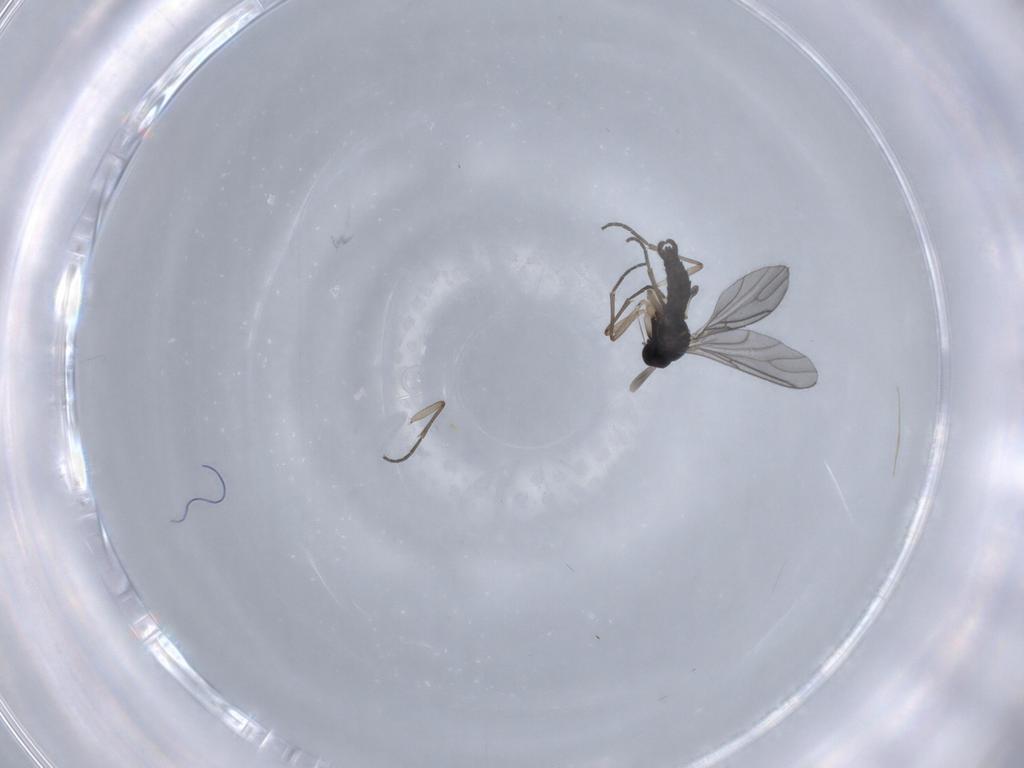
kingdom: Animalia
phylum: Arthropoda
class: Insecta
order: Diptera
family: Sciaridae
